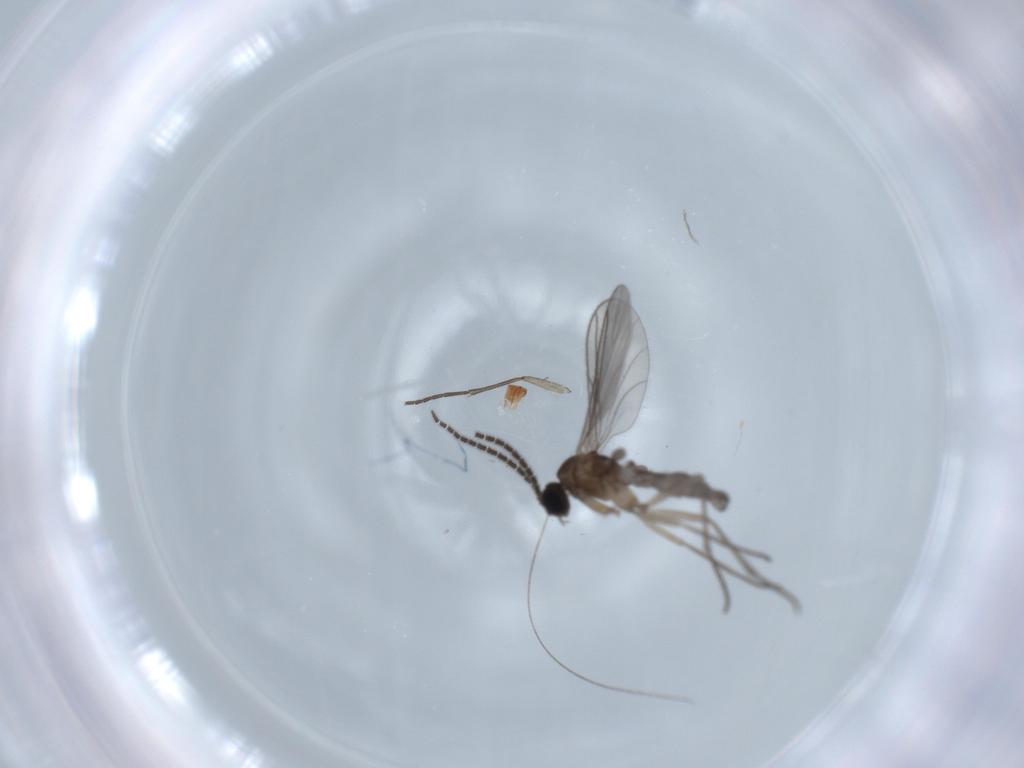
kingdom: Animalia
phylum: Arthropoda
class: Insecta
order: Diptera
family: Sciaridae
